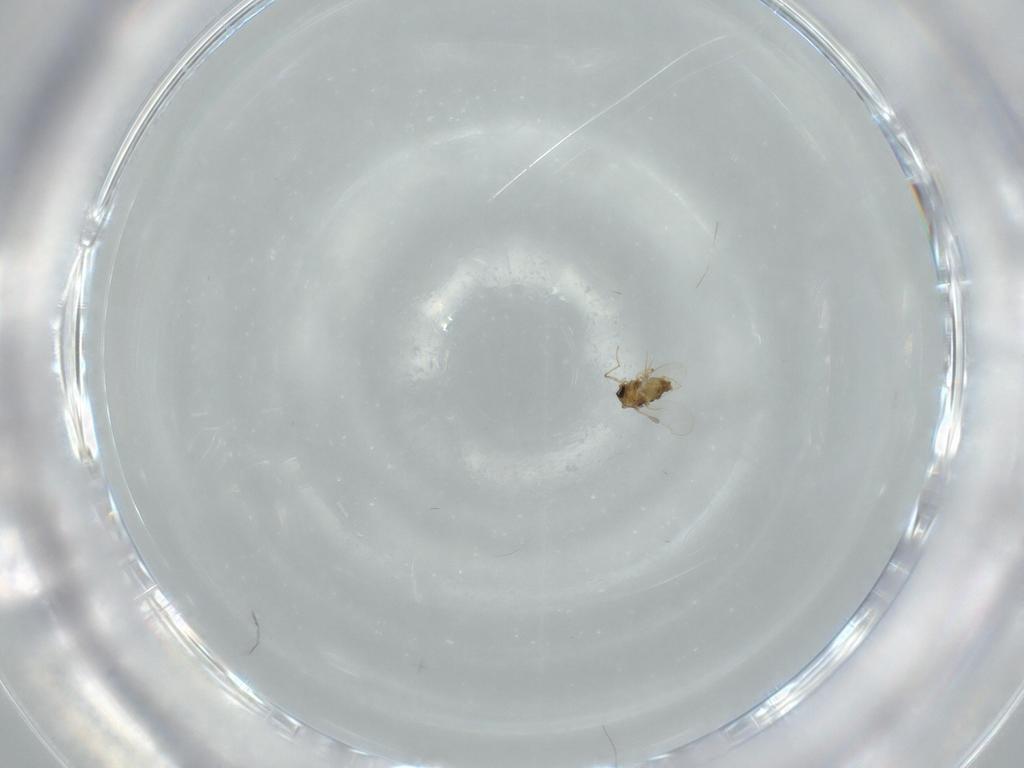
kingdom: Animalia
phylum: Arthropoda
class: Insecta
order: Diptera
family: Chironomidae
